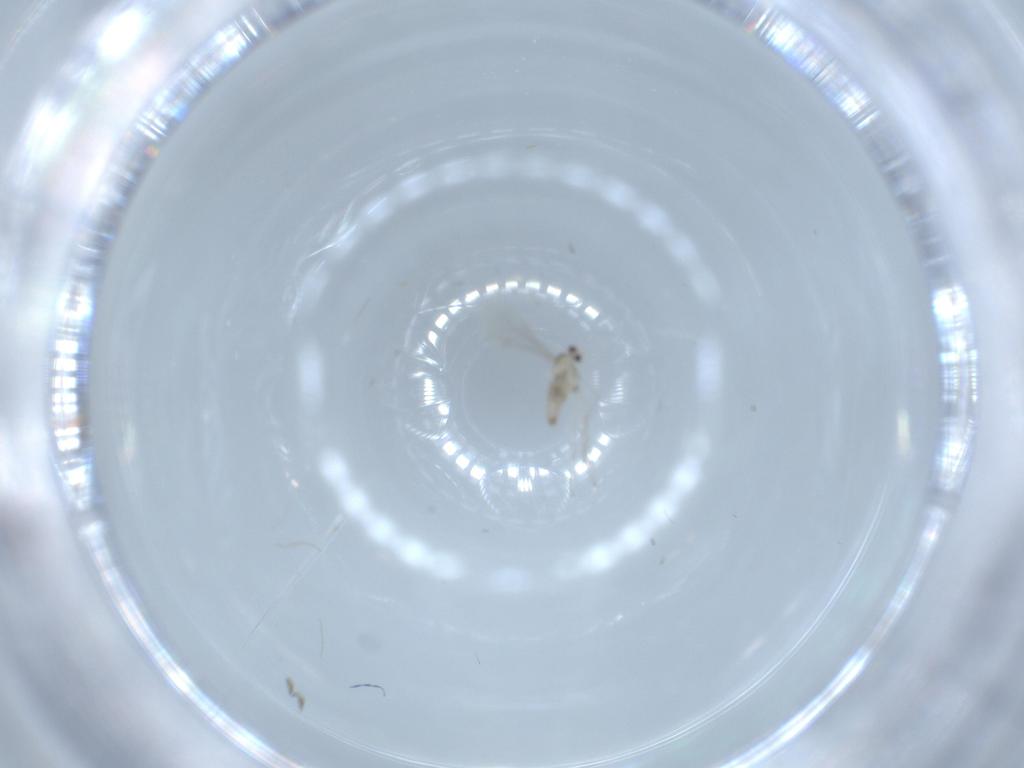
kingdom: Animalia
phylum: Arthropoda
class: Insecta
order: Diptera
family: Cecidomyiidae
